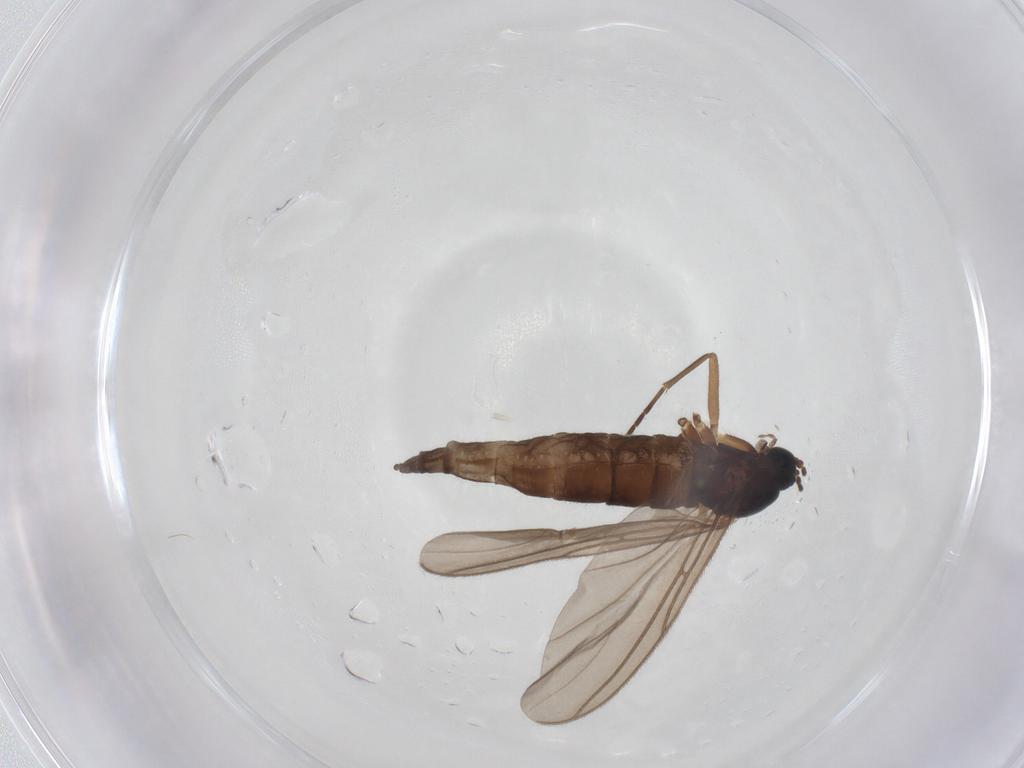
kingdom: Animalia
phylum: Arthropoda
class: Insecta
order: Diptera
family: Sciaridae
